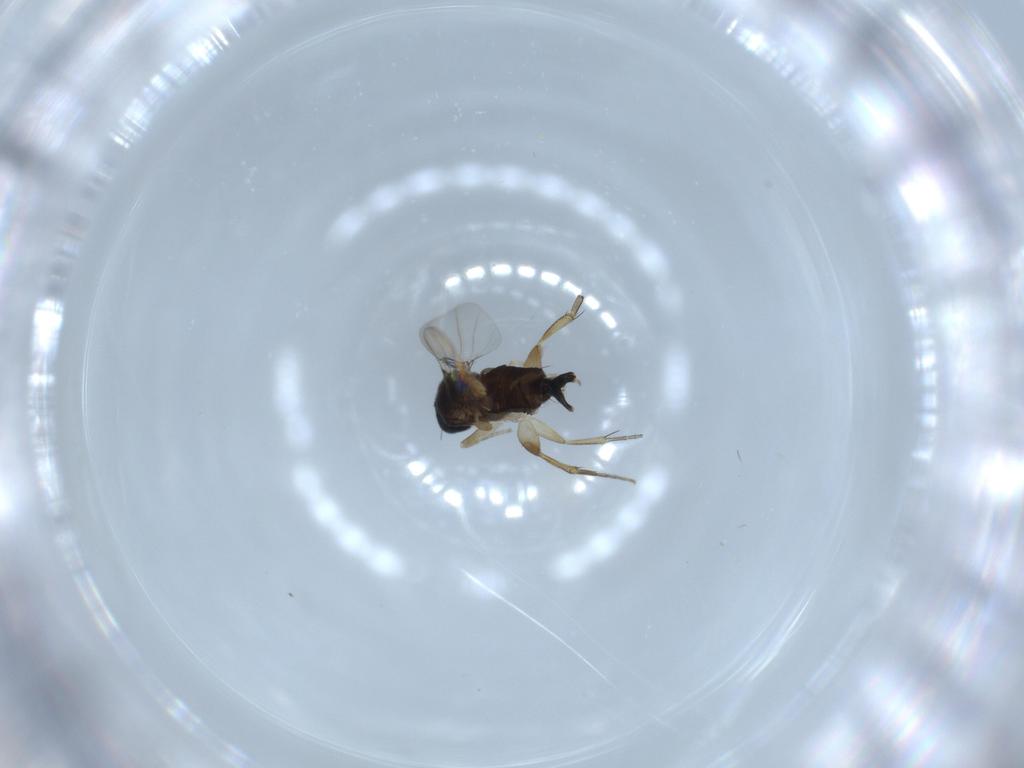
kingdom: Animalia
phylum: Arthropoda
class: Insecta
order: Diptera
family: Phoridae
